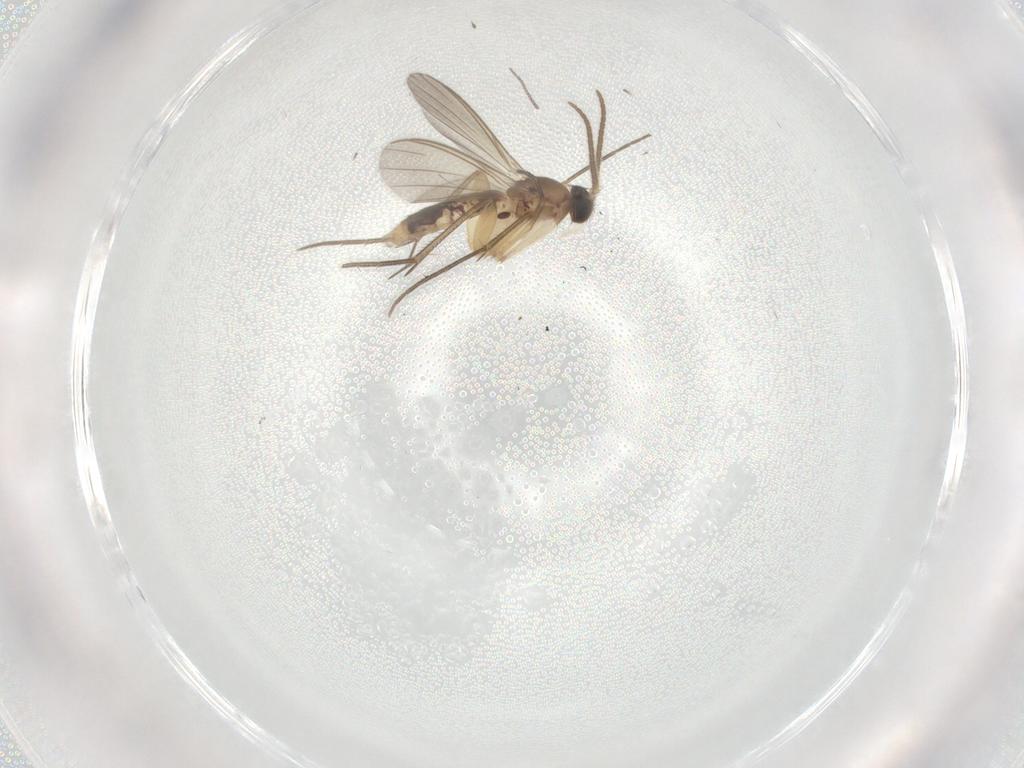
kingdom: Animalia
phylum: Arthropoda
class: Insecta
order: Diptera
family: Mycetophilidae
